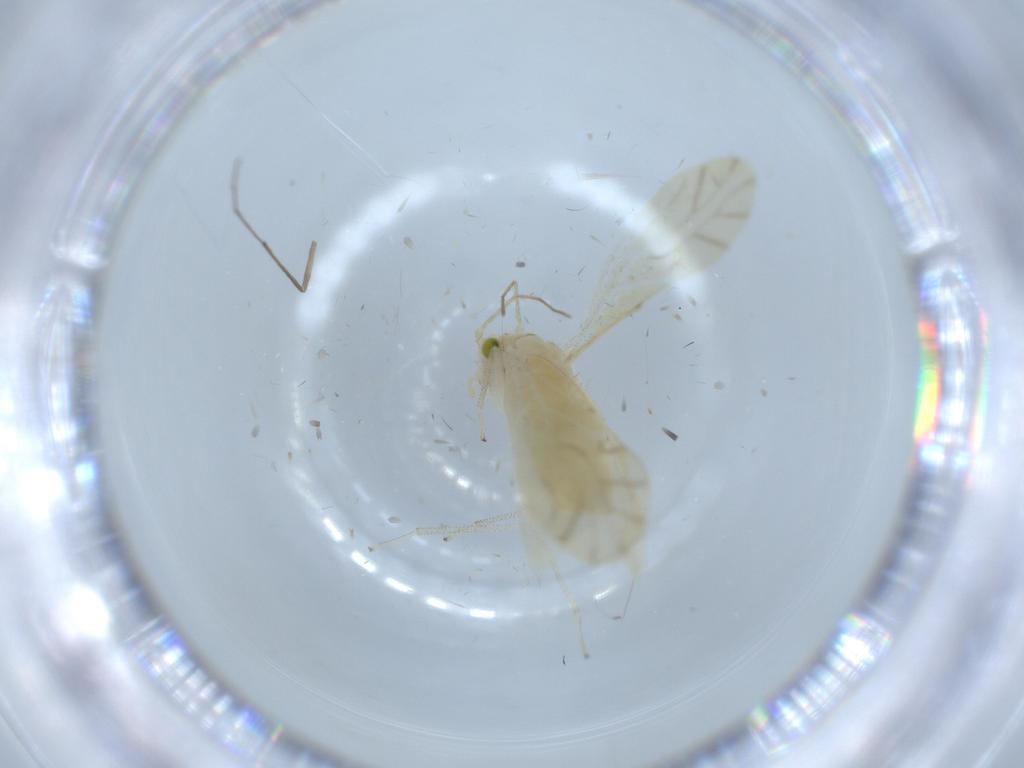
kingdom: Animalia
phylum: Arthropoda
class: Insecta
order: Psocodea
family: Caeciliusidae
